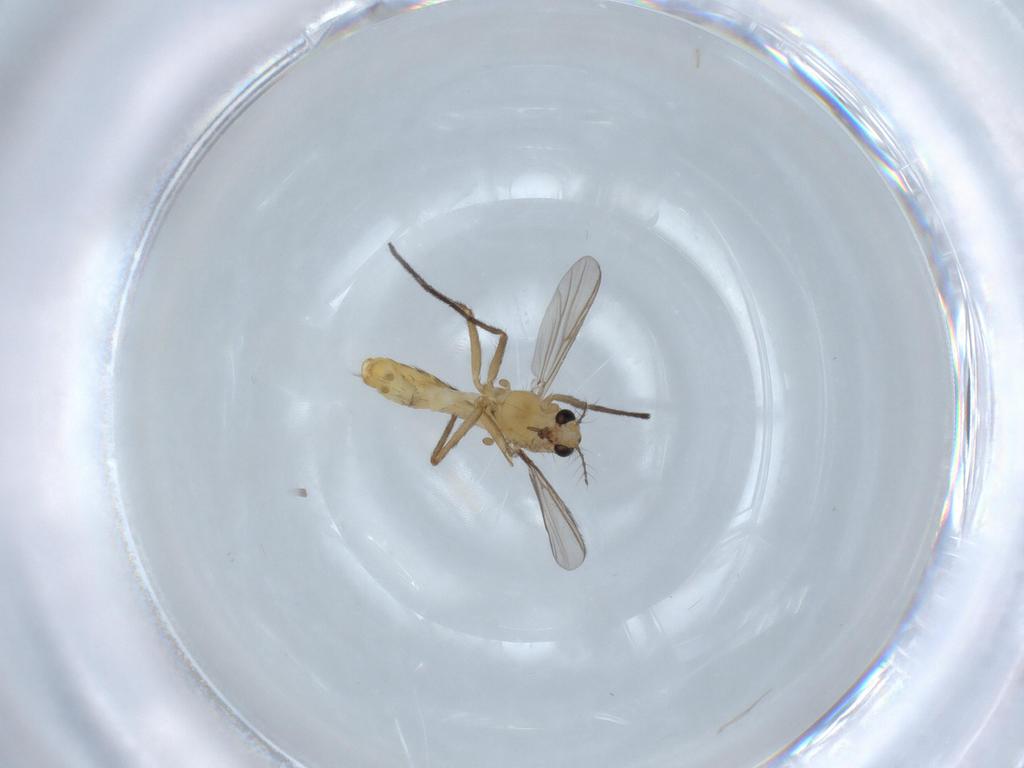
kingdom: Animalia
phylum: Arthropoda
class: Insecta
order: Diptera
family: Chironomidae
